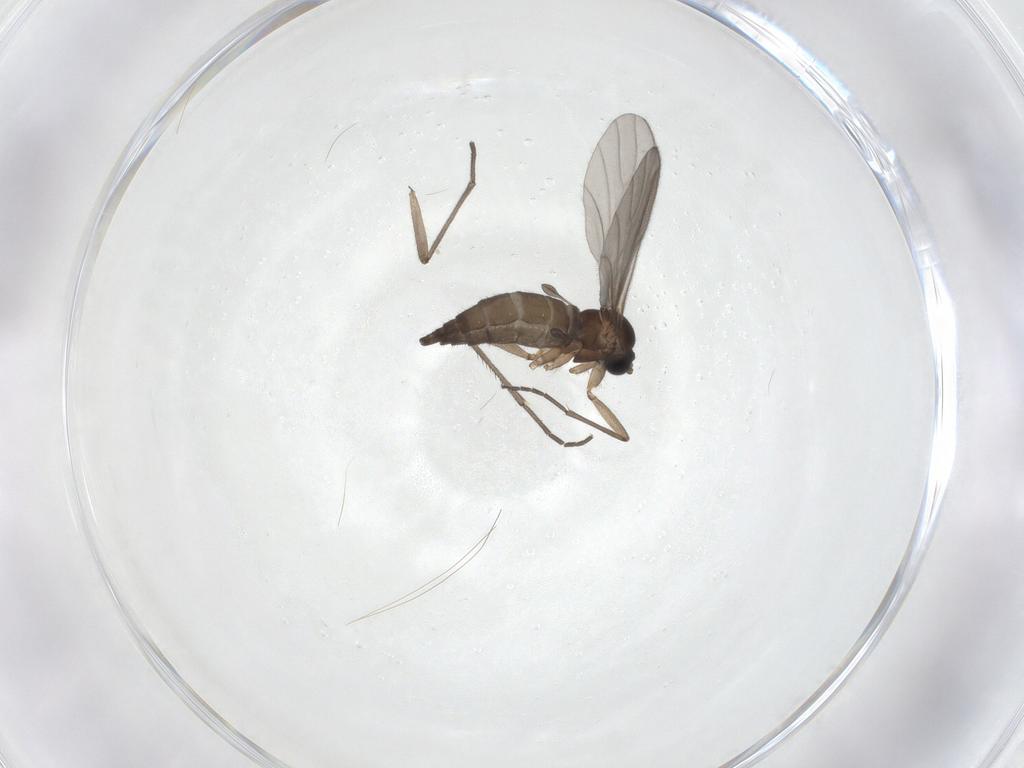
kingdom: Animalia
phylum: Arthropoda
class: Insecta
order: Diptera
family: Sciaridae
